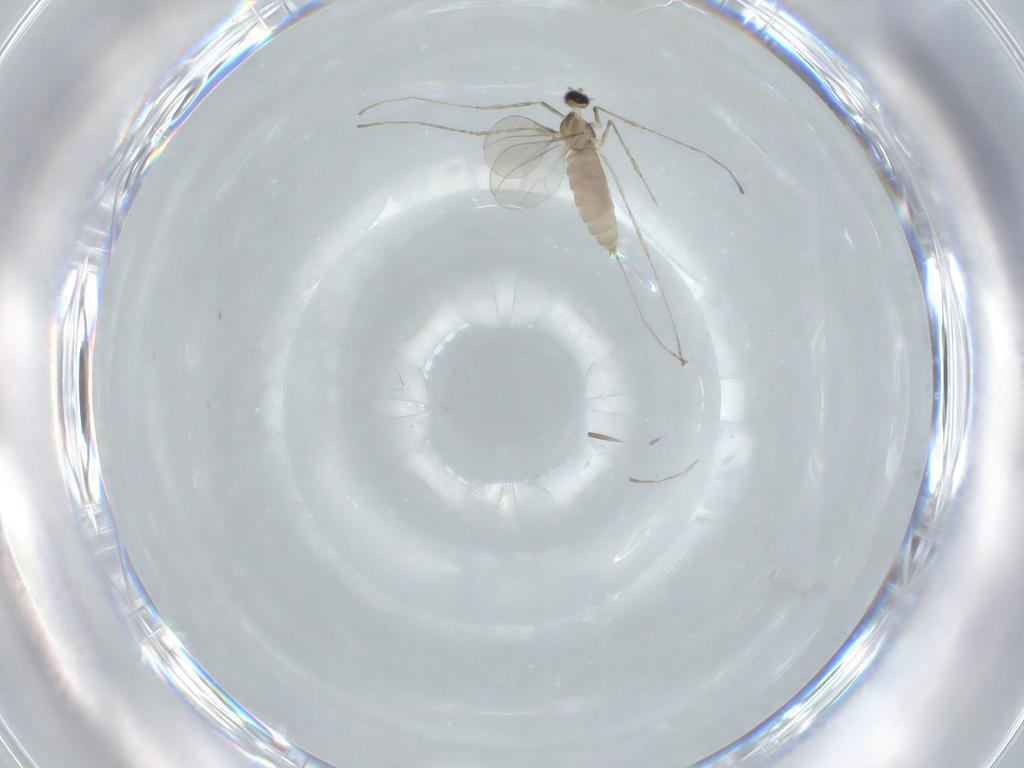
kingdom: Animalia
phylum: Arthropoda
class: Insecta
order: Diptera
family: Cecidomyiidae
